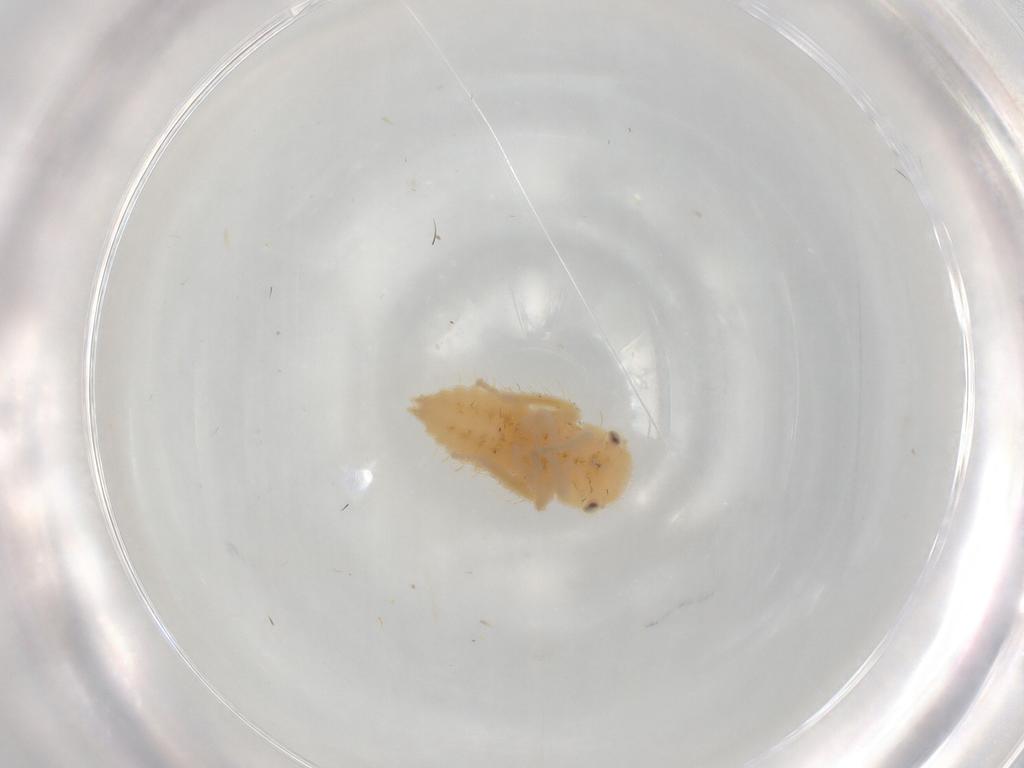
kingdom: Animalia
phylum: Arthropoda
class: Insecta
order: Hemiptera
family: Cicadellidae
